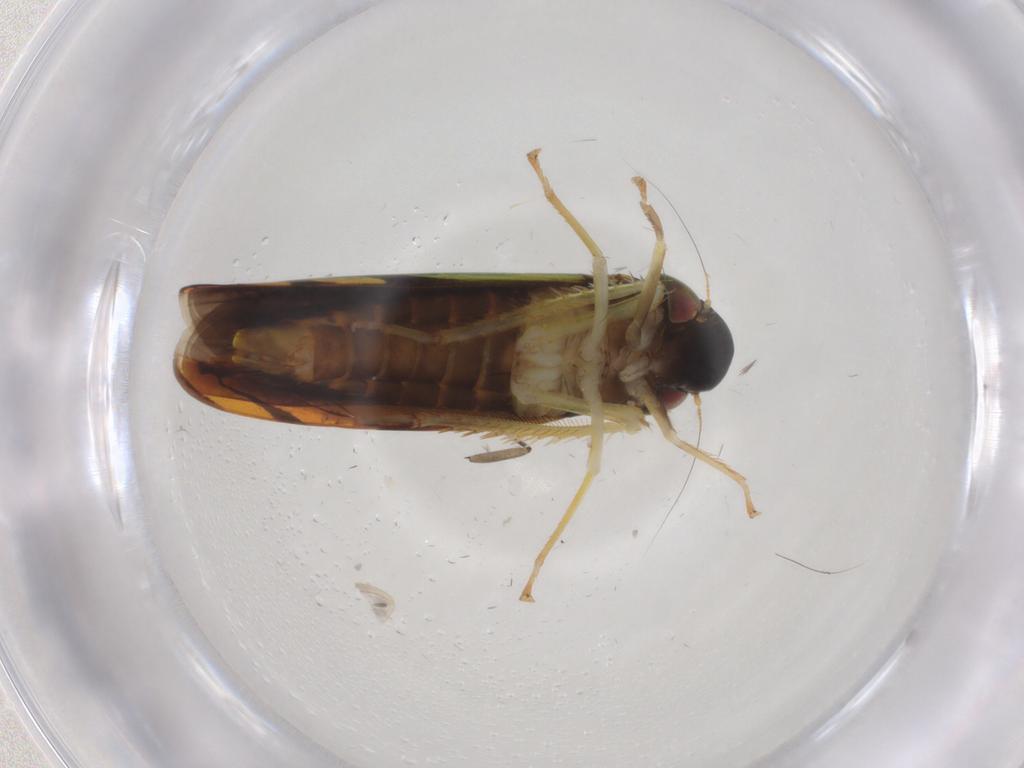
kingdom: Animalia
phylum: Arthropoda
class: Insecta
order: Hemiptera
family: Cicadellidae
